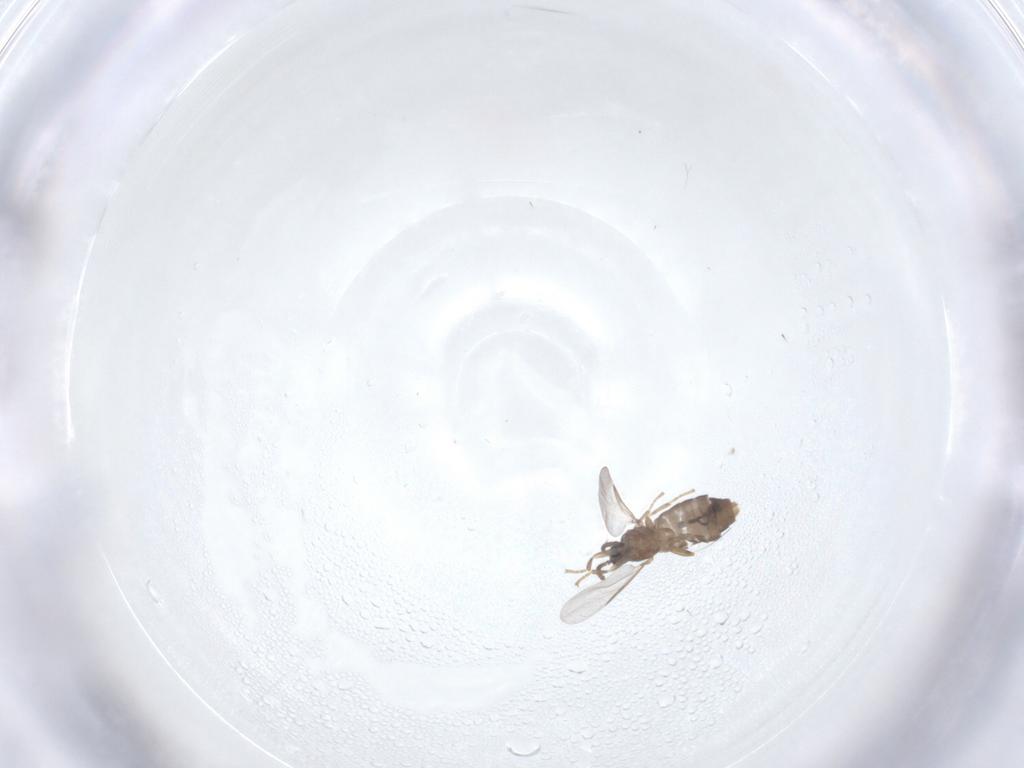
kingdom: Animalia
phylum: Arthropoda
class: Insecta
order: Diptera
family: Scatopsidae
